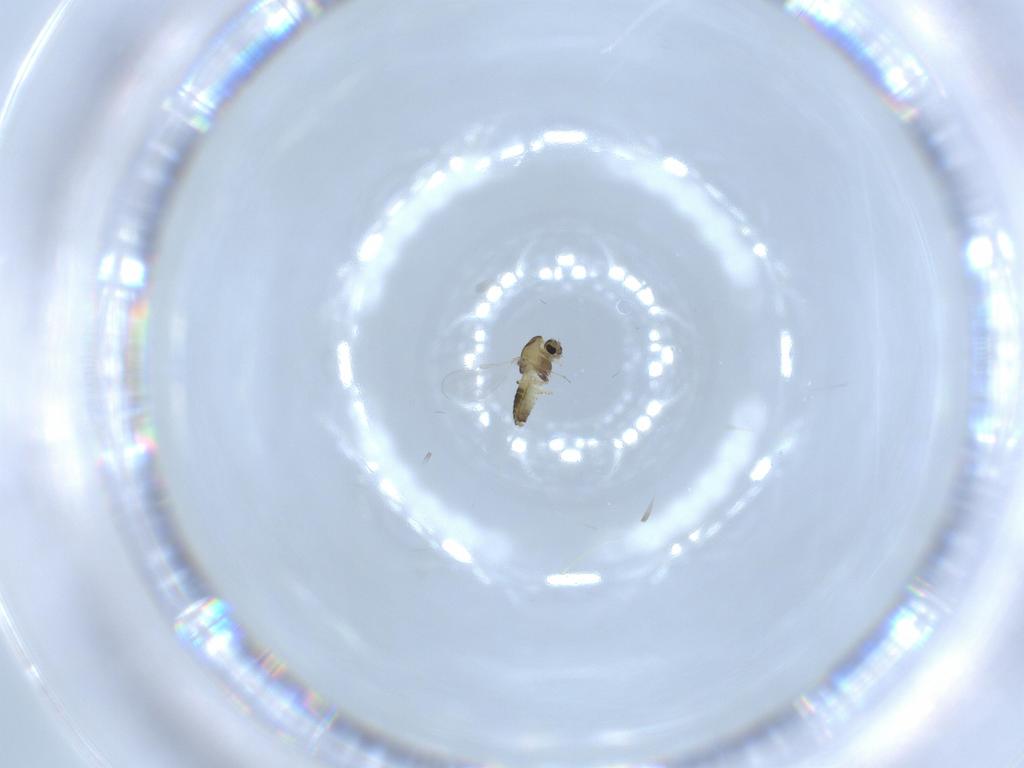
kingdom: Animalia
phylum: Arthropoda
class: Insecta
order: Diptera
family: Chironomidae
